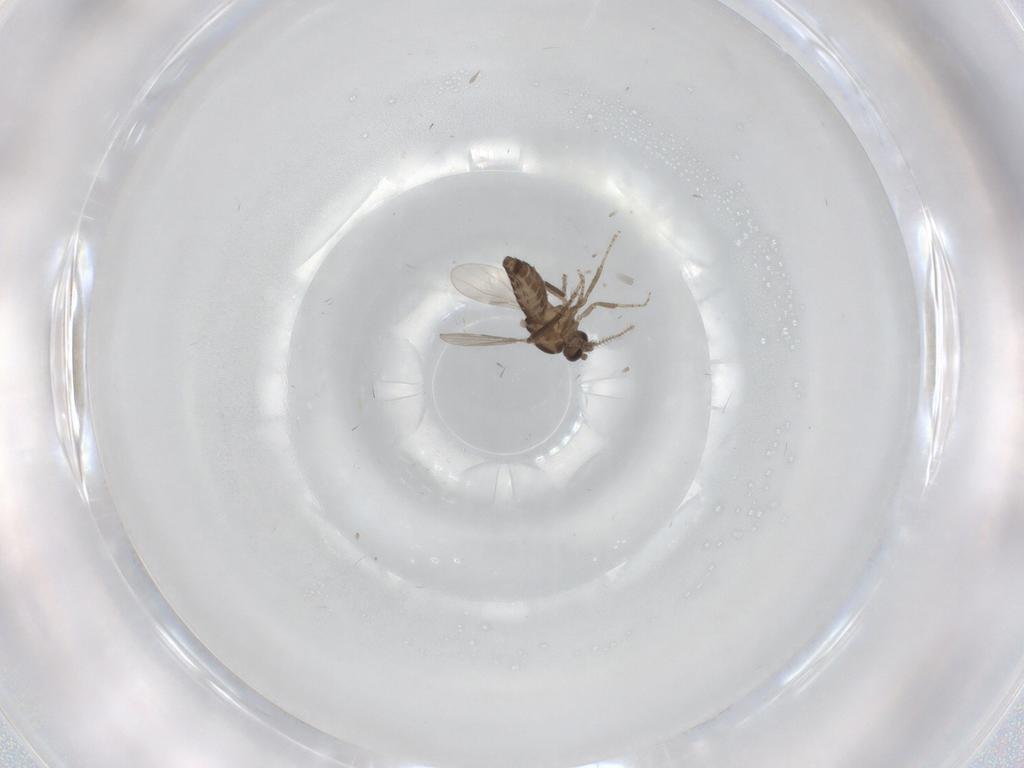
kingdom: Animalia
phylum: Arthropoda
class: Insecta
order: Diptera
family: Ceratopogonidae
